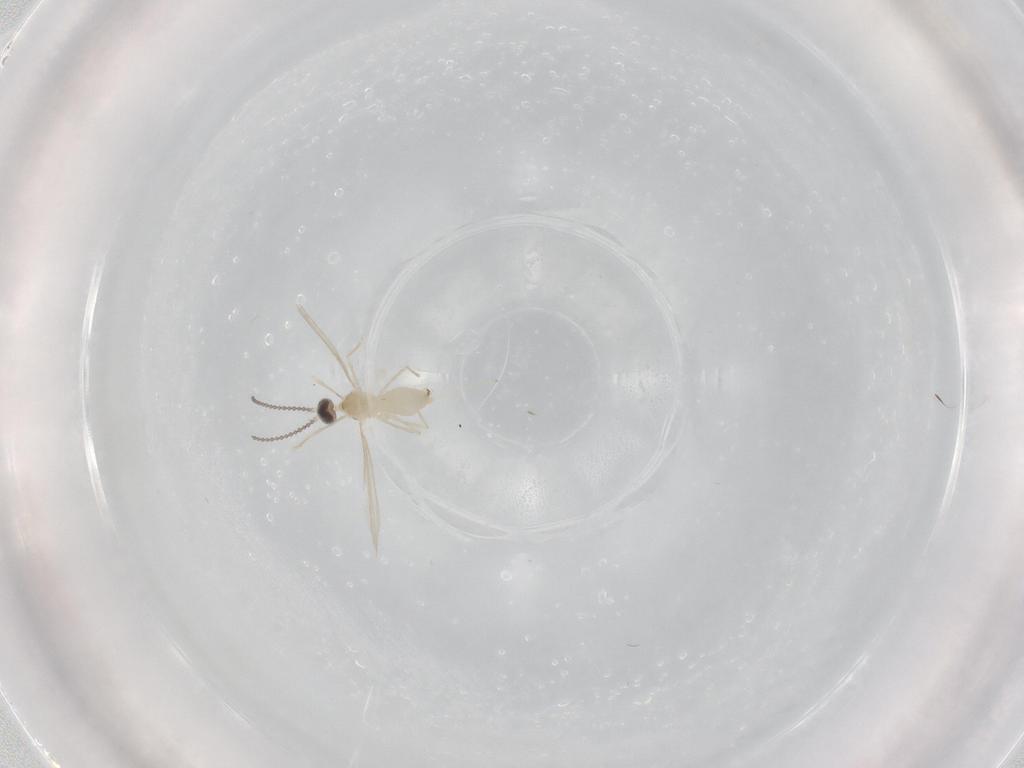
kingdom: Animalia
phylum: Arthropoda
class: Insecta
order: Diptera
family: Cecidomyiidae
